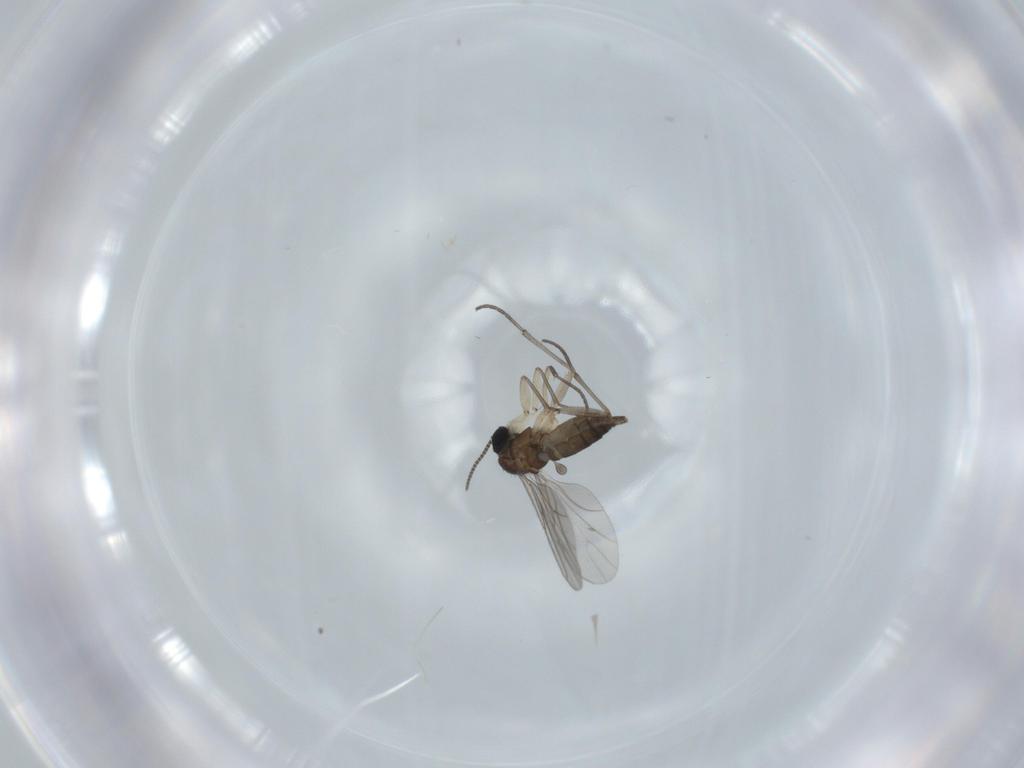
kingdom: Animalia
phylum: Arthropoda
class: Insecta
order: Diptera
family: Sciaridae
